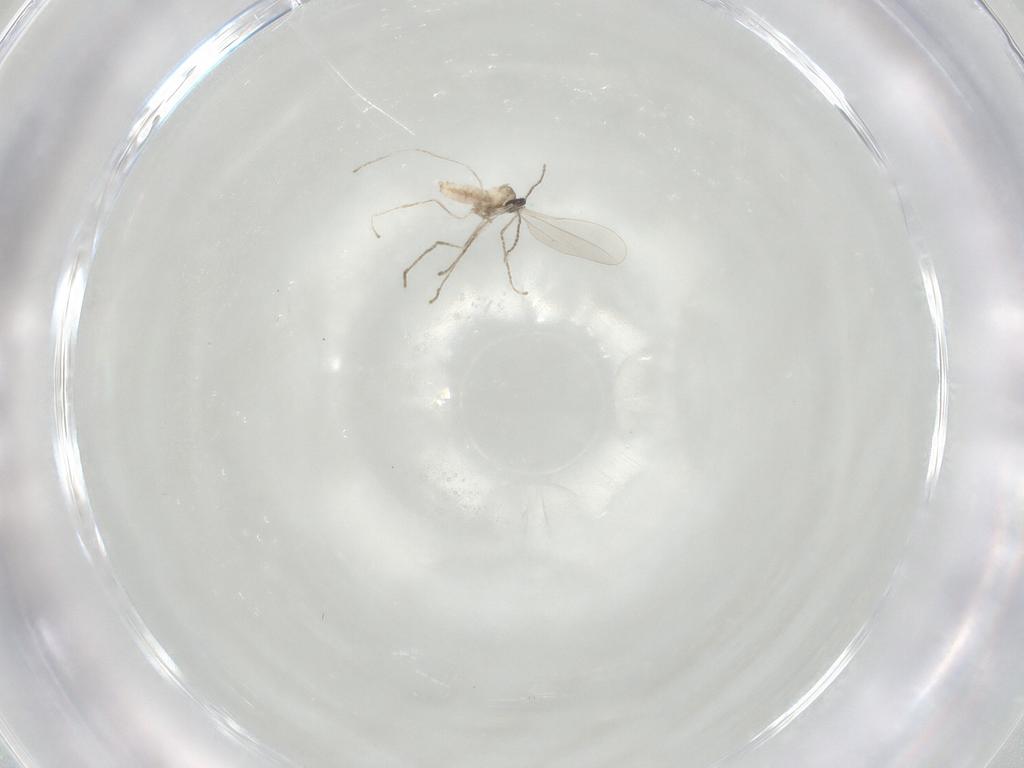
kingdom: Animalia
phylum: Arthropoda
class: Insecta
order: Diptera
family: Cecidomyiidae
